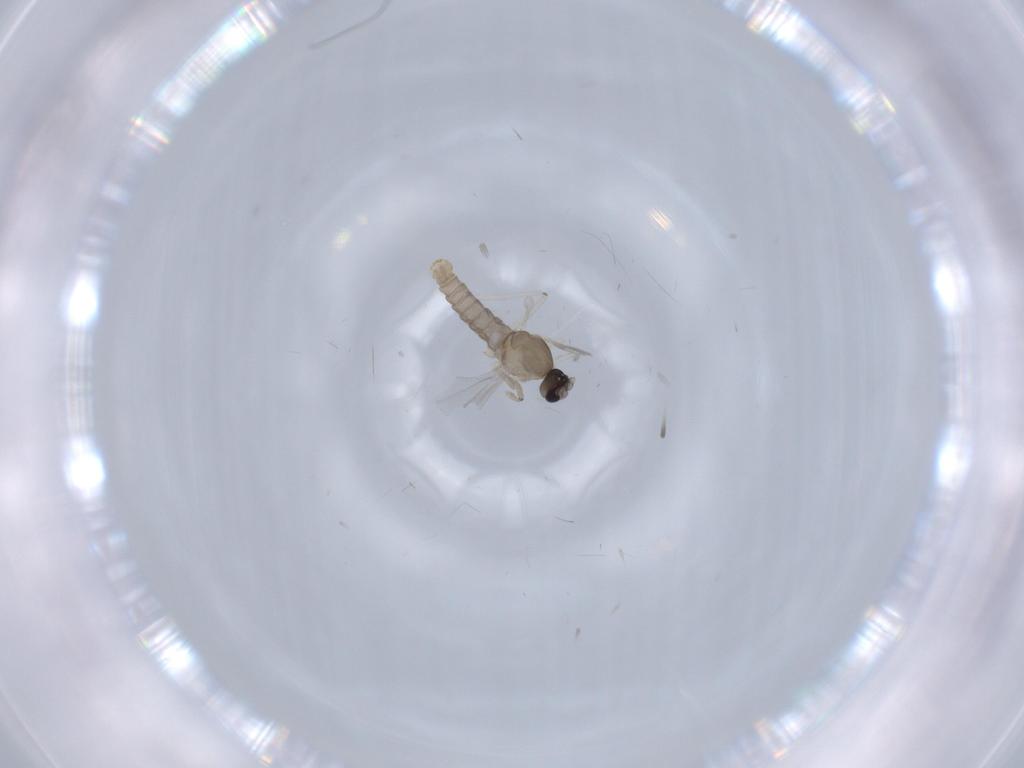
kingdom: Animalia
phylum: Arthropoda
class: Insecta
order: Diptera
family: Cecidomyiidae
